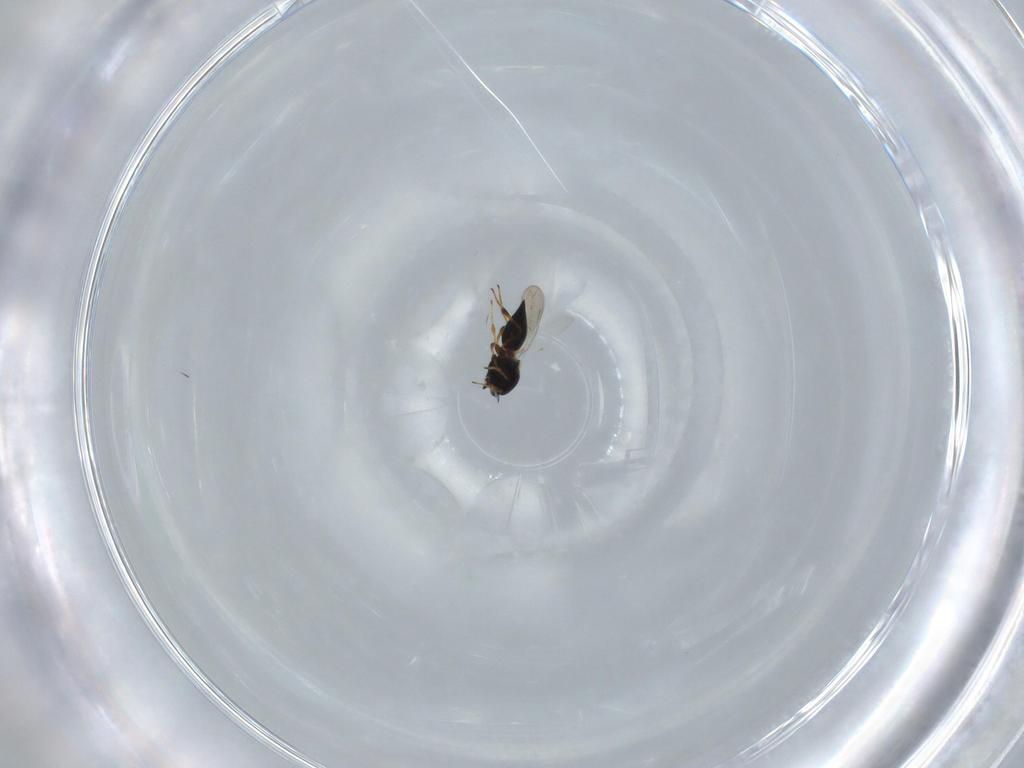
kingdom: Animalia
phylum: Arthropoda
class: Insecta
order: Hymenoptera
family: Platygastridae
